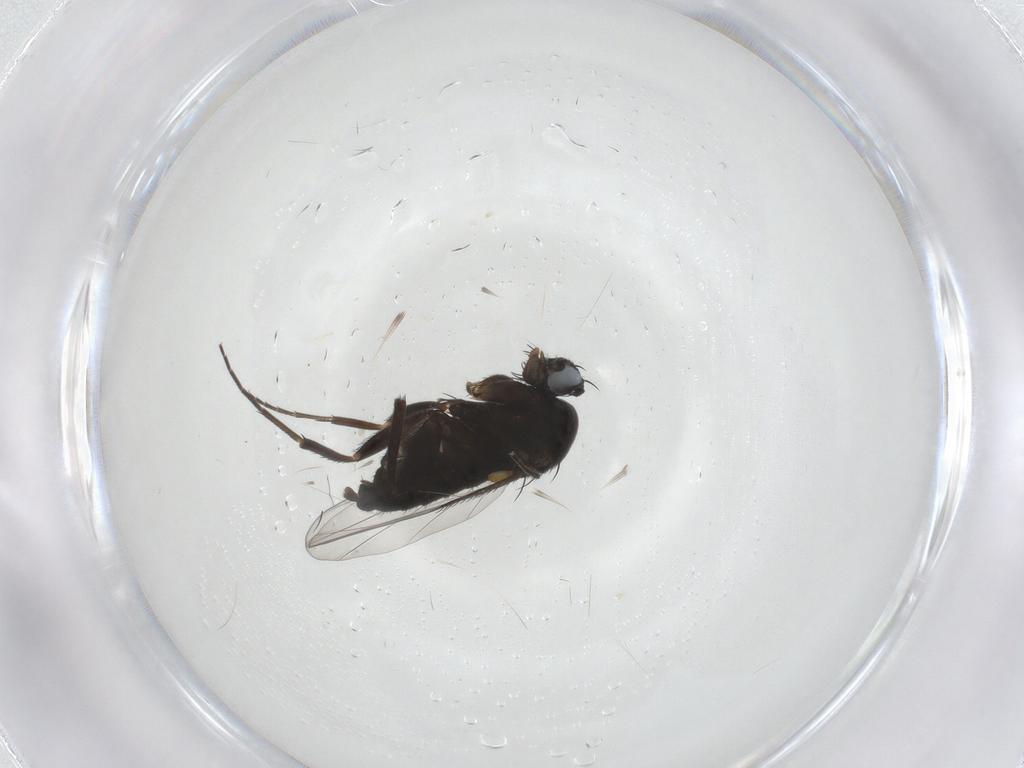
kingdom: Animalia
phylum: Arthropoda
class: Insecta
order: Diptera
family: Phoridae
